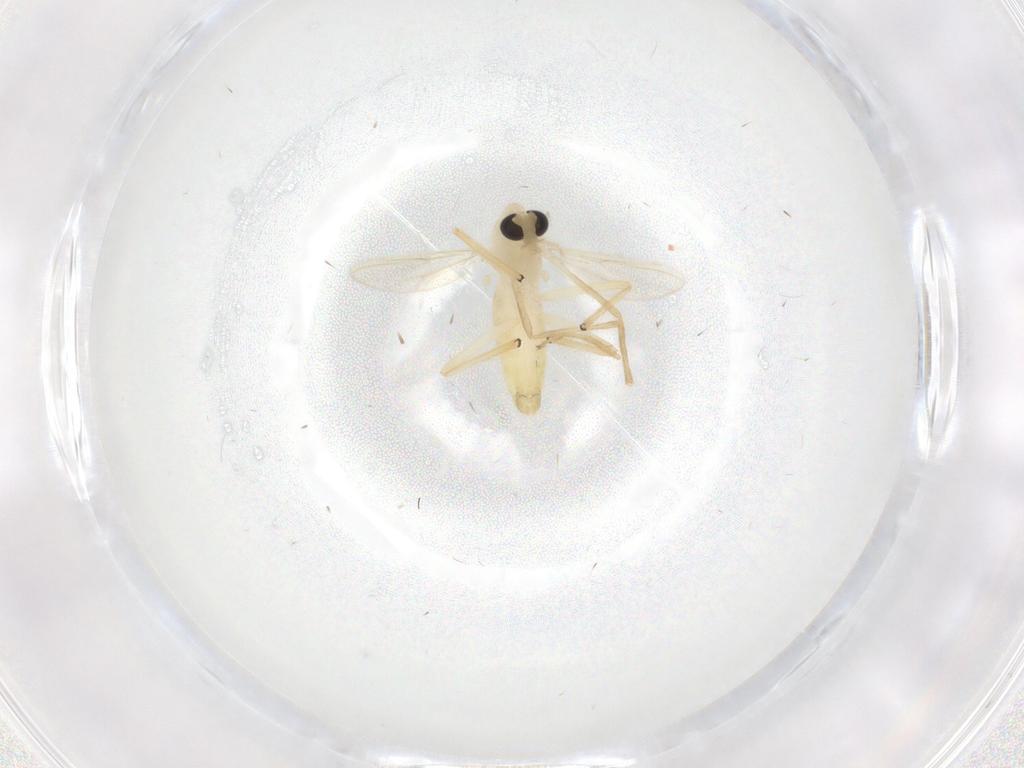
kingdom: Animalia
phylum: Arthropoda
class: Insecta
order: Diptera
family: Chironomidae
